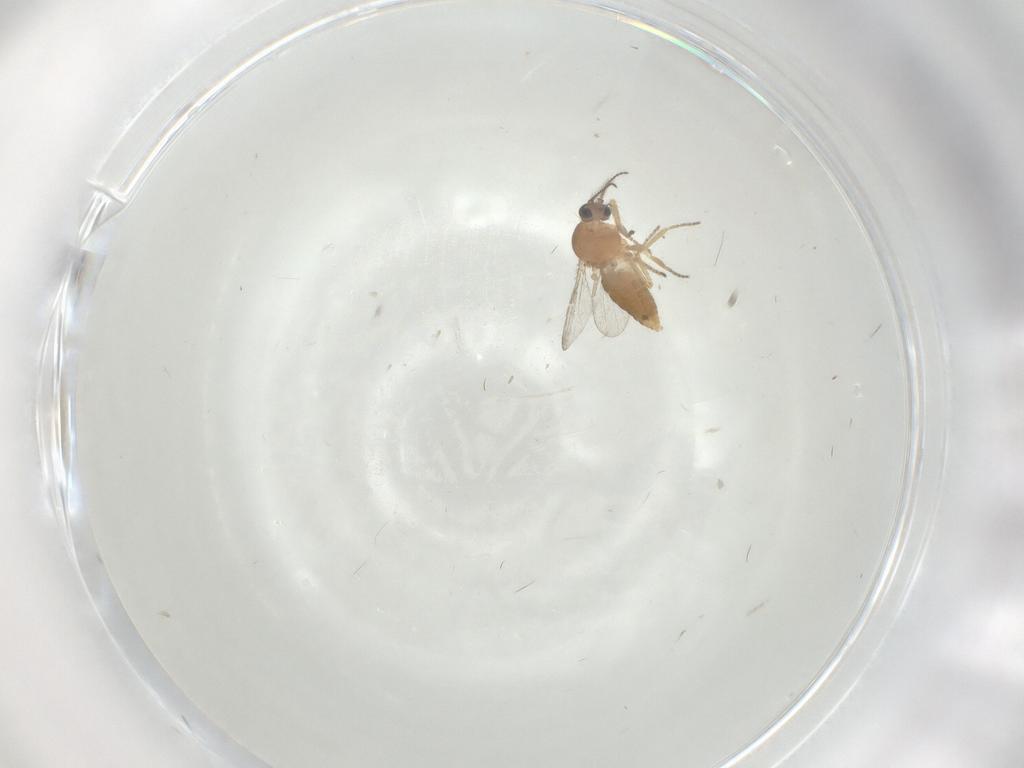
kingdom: Animalia
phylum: Arthropoda
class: Insecta
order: Diptera
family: Ceratopogonidae
